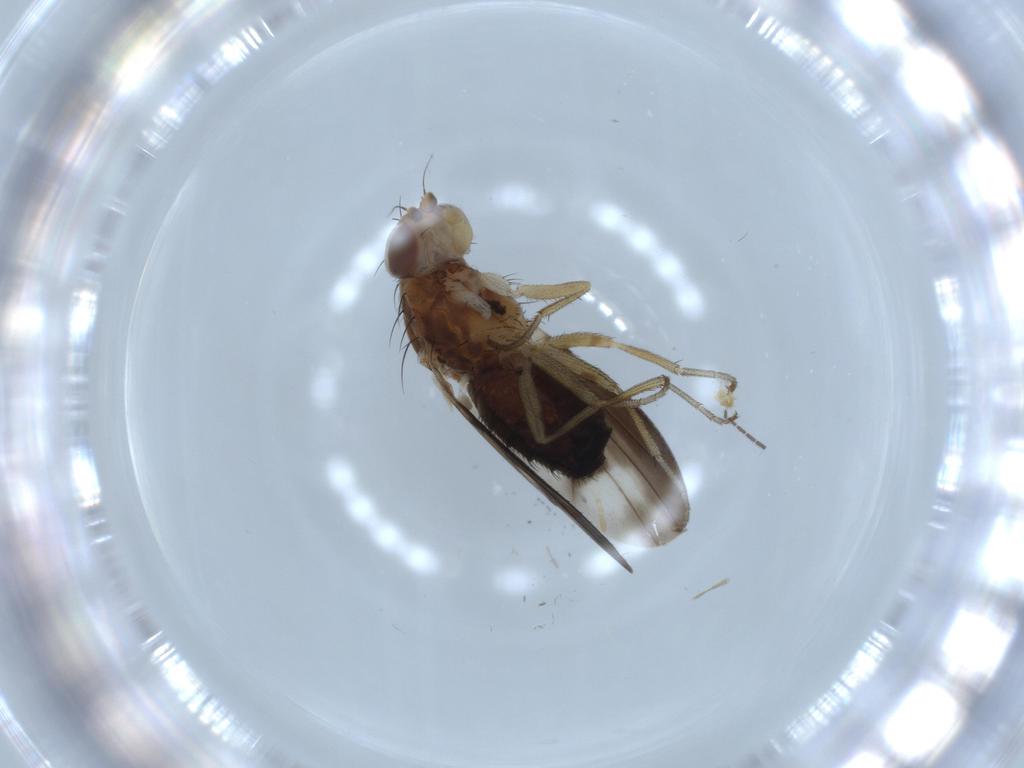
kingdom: Animalia
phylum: Arthropoda
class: Insecta
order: Diptera
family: Heleomyzidae
